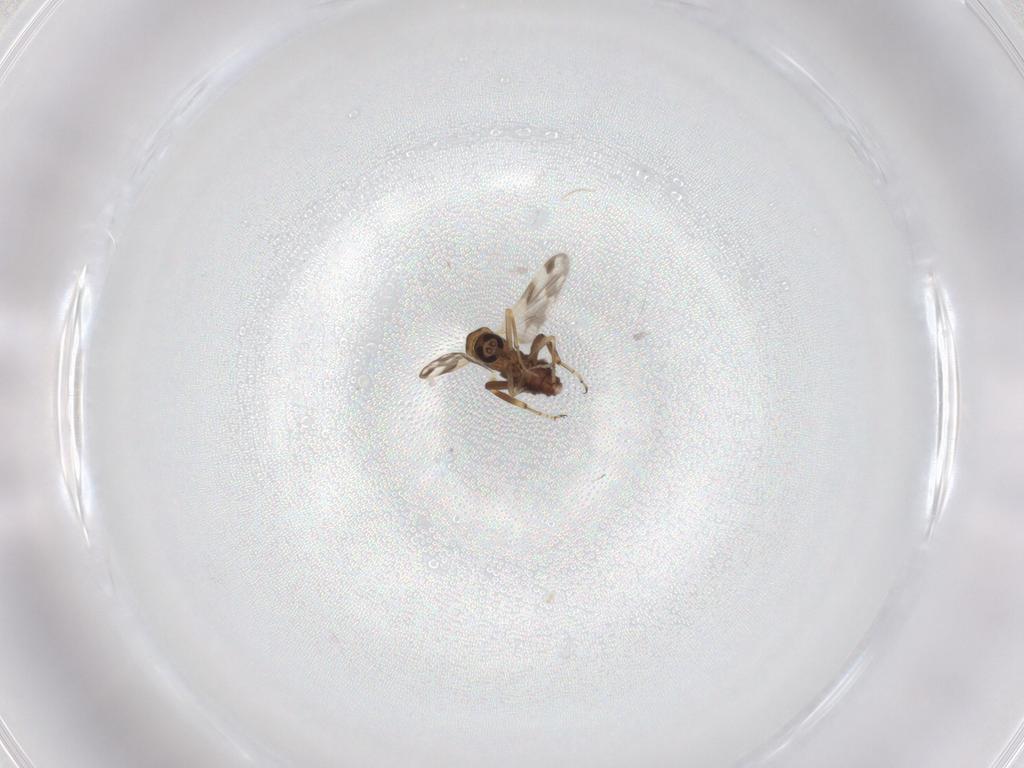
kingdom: Animalia
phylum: Arthropoda
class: Insecta
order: Diptera
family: Ceratopogonidae
